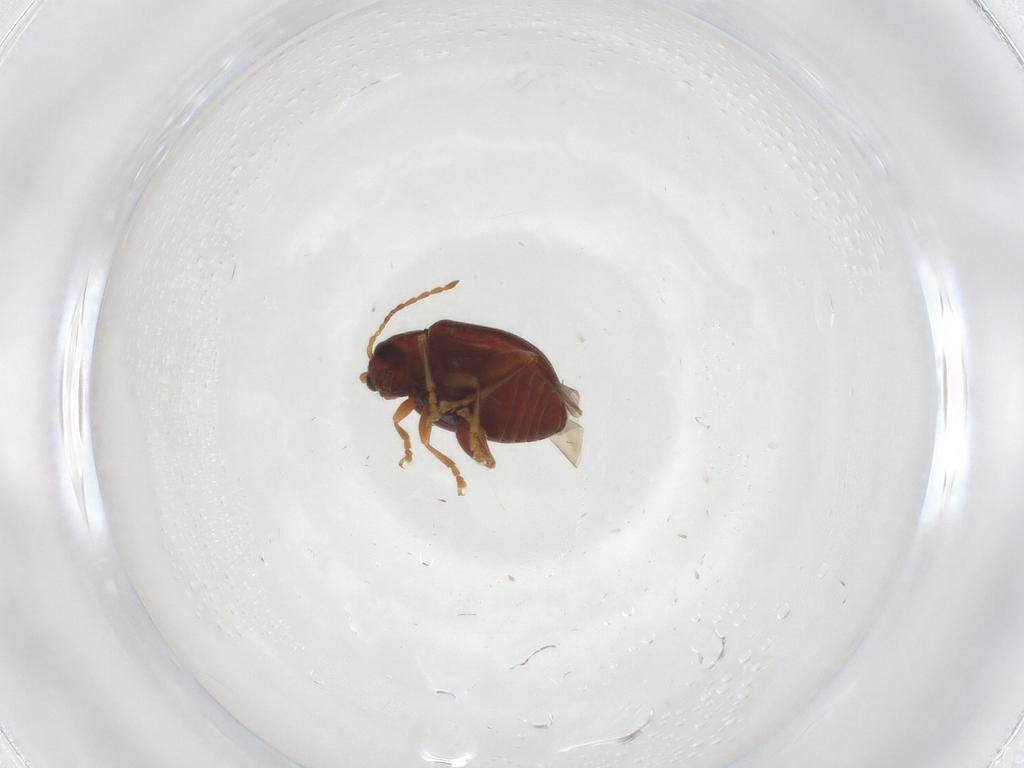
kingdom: Animalia
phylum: Arthropoda
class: Insecta
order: Coleoptera
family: Chrysomelidae
